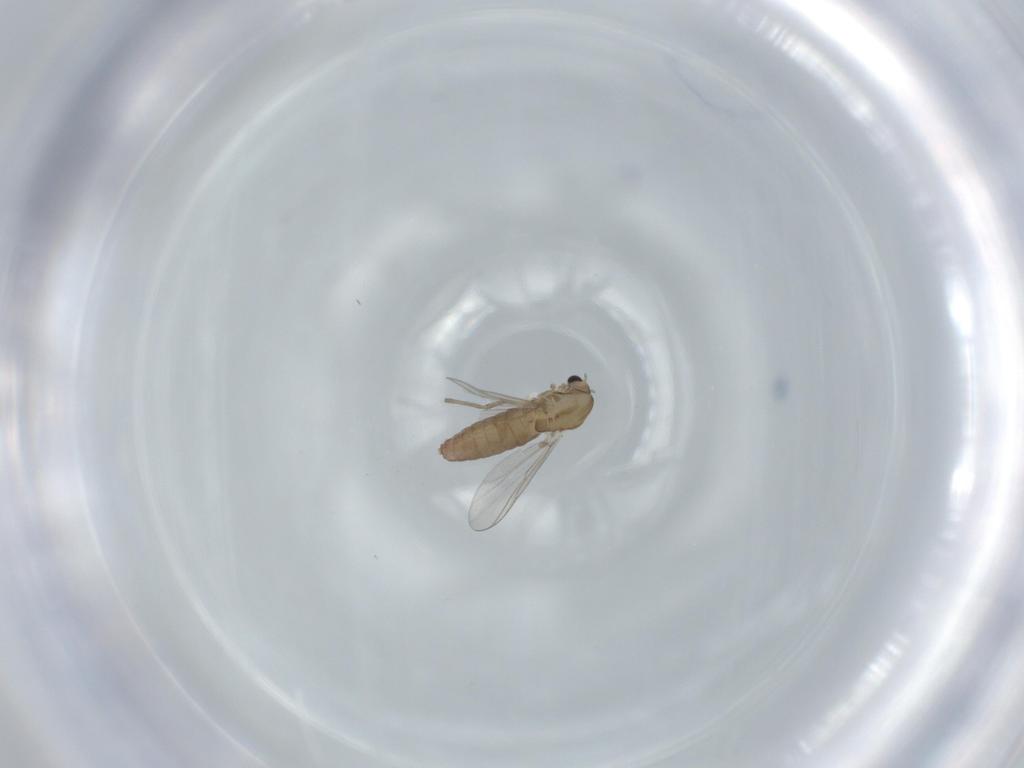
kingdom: Animalia
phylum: Arthropoda
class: Insecta
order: Diptera
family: Chironomidae
